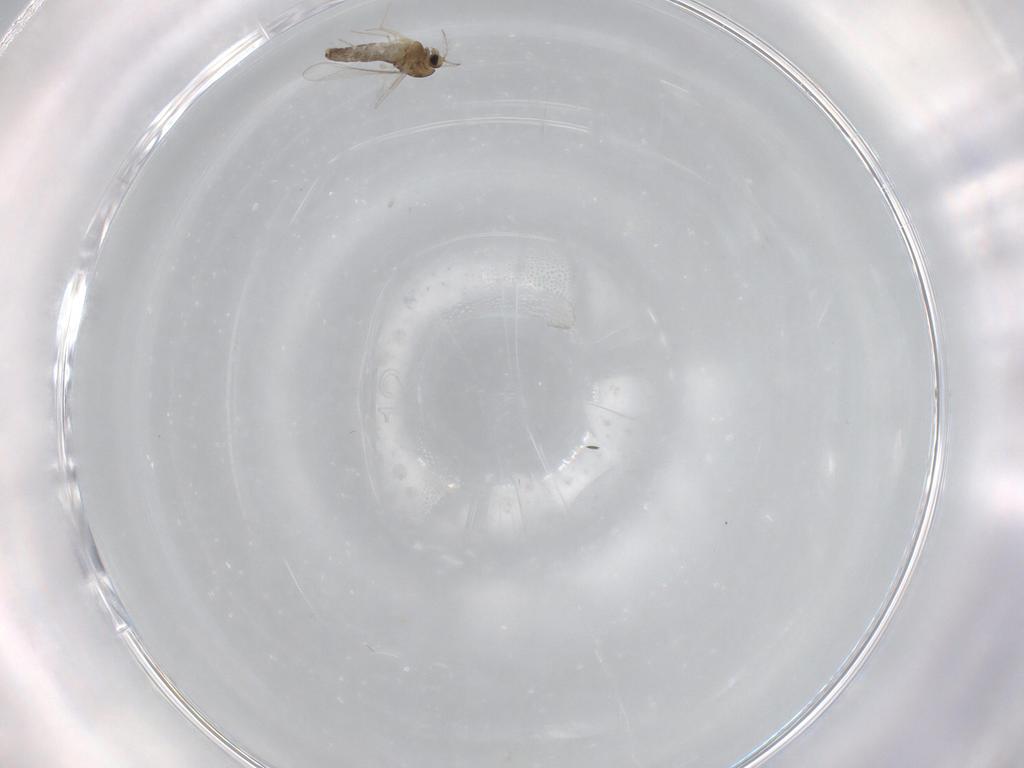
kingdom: Animalia
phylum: Arthropoda
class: Insecta
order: Diptera
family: Chironomidae
